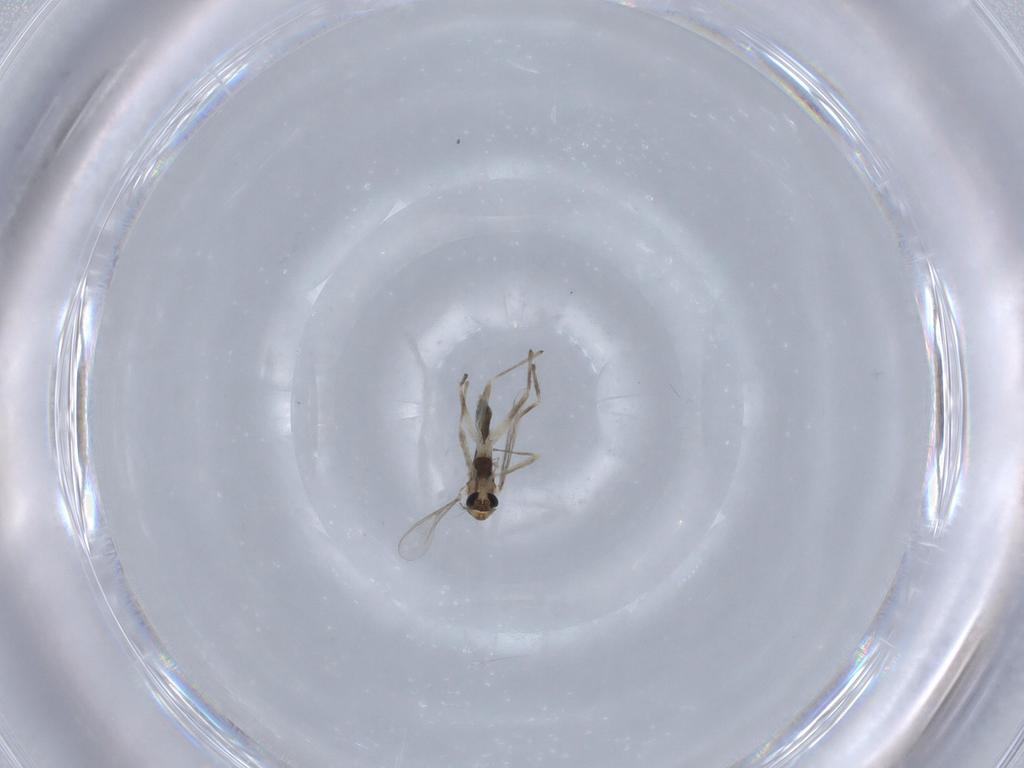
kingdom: Animalia
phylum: Arthropoda
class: Insecta
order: Diptera
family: Chironomidae
